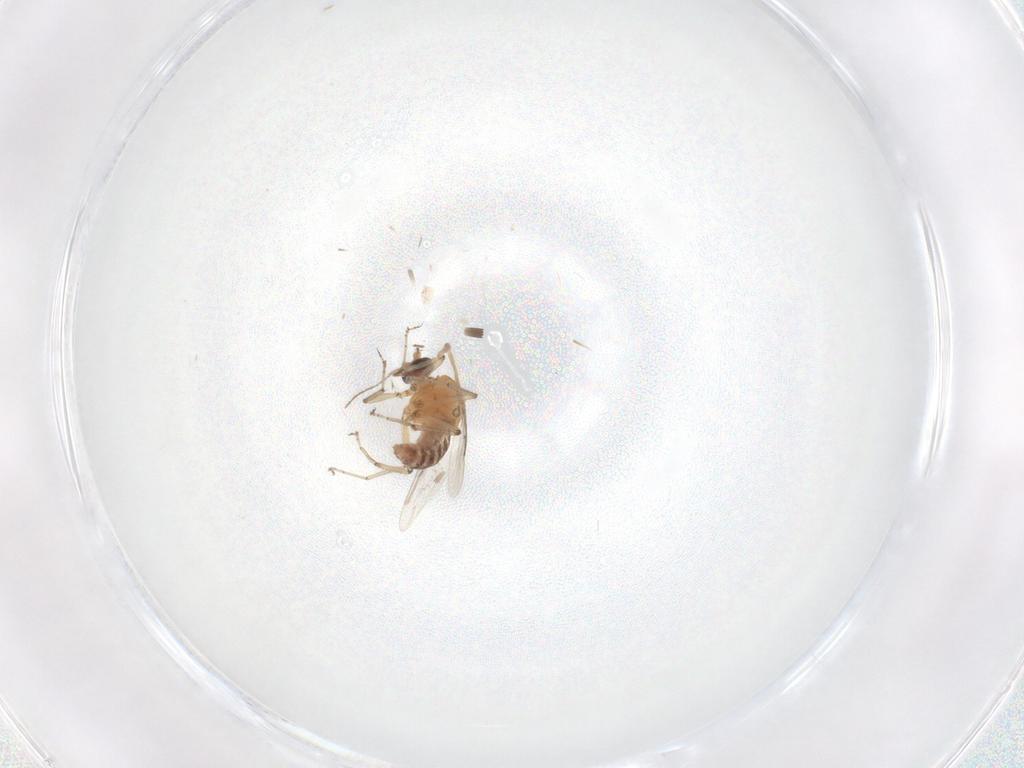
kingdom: Animalia
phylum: Arthropoda
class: Insecta
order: Diptera
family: Ceratopogonidae
